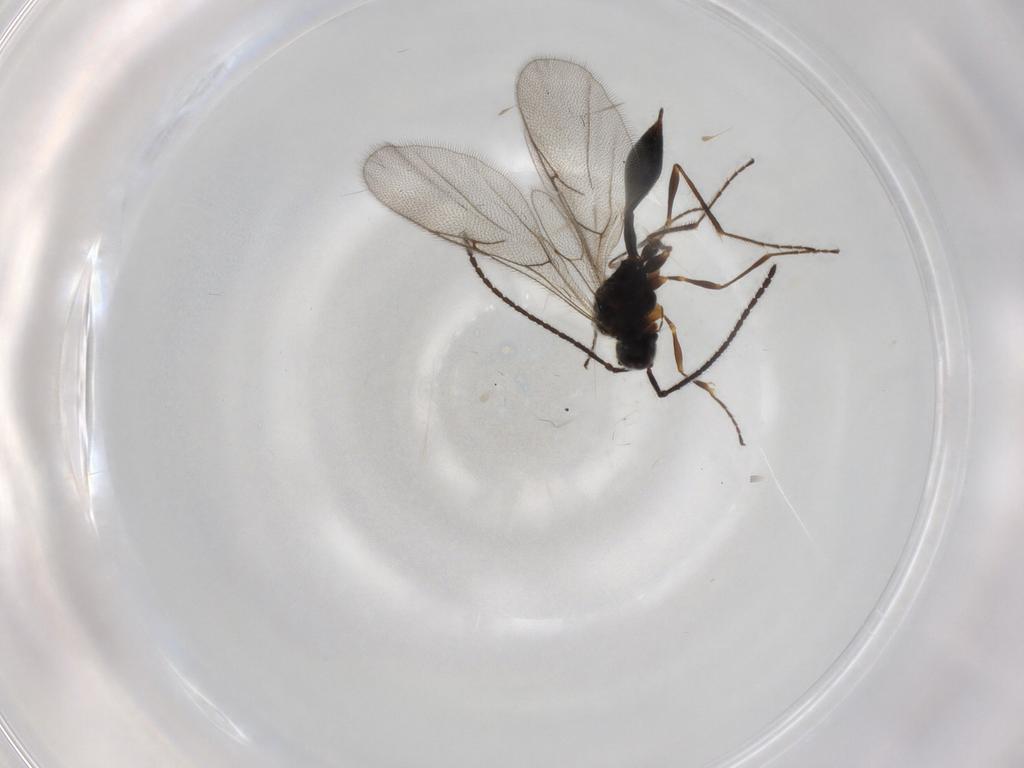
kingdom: Animalia
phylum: Arthropoda
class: Insecta
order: Hymenoptera
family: Diapriidae
